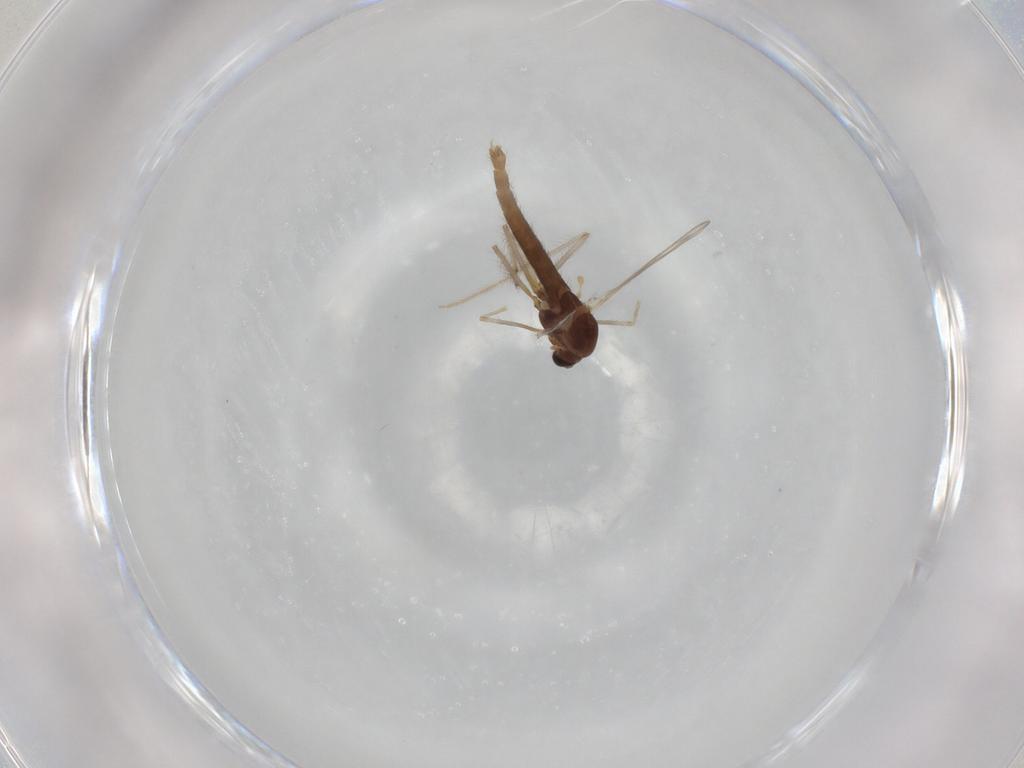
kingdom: Animalia
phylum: Arthropoda
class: Insecta
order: Diptera
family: Chironomidae
